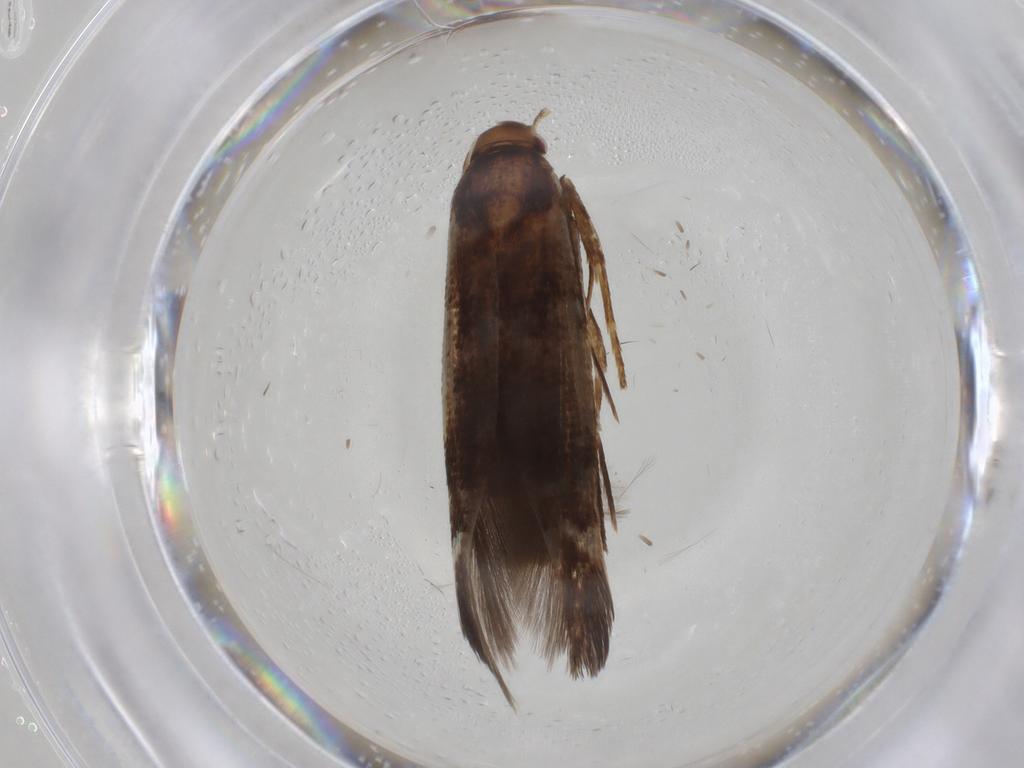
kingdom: Animalia
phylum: Arthropoda
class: Insecta
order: Lepidoptera
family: Cosmopterigidae
